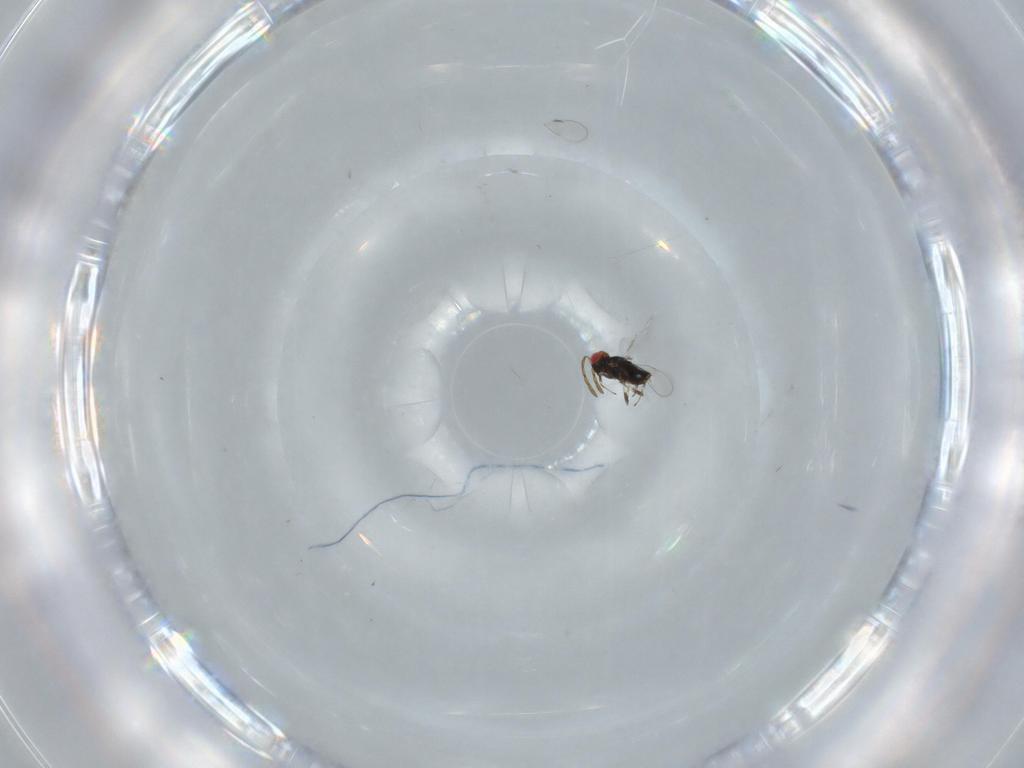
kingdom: Animalia
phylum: Arthropoda
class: Insecta
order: Hymenoptera
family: Azotidae
